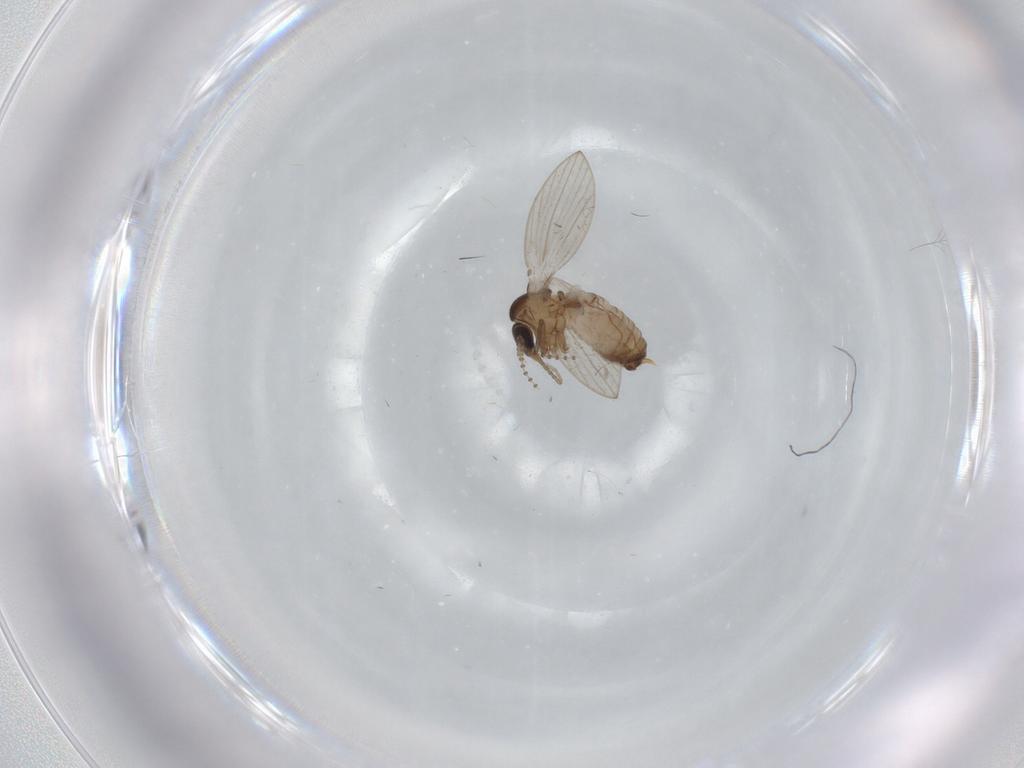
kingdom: Animalia
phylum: Arthropoda
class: Insecta
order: Diptera
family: Psychodidae
